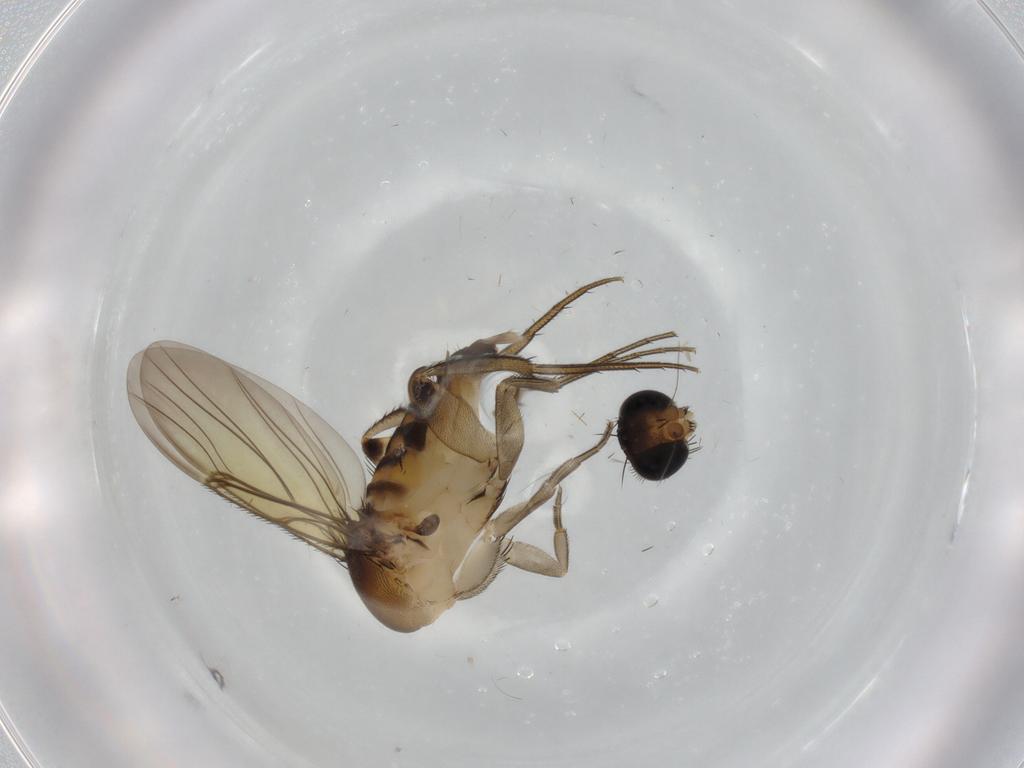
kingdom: Animalia
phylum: Arthropoda
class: Insecta
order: Diptera
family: Phoridae
